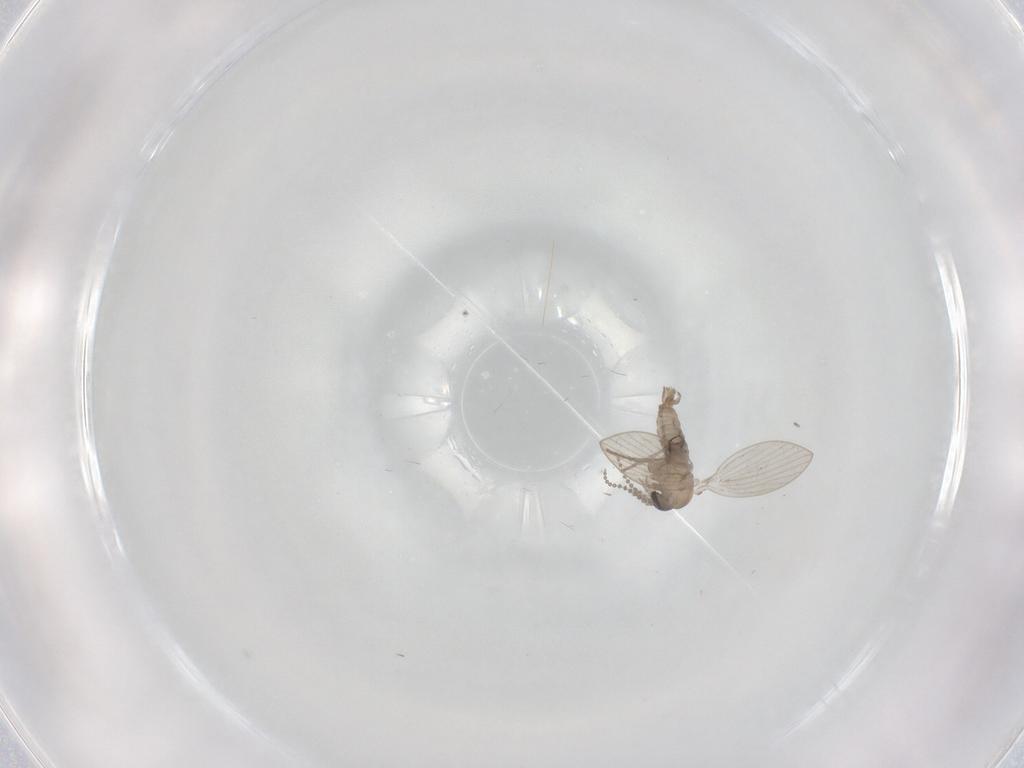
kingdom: Animalia
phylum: Arthropoda
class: Insecta
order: Diptera
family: Psychodidae
